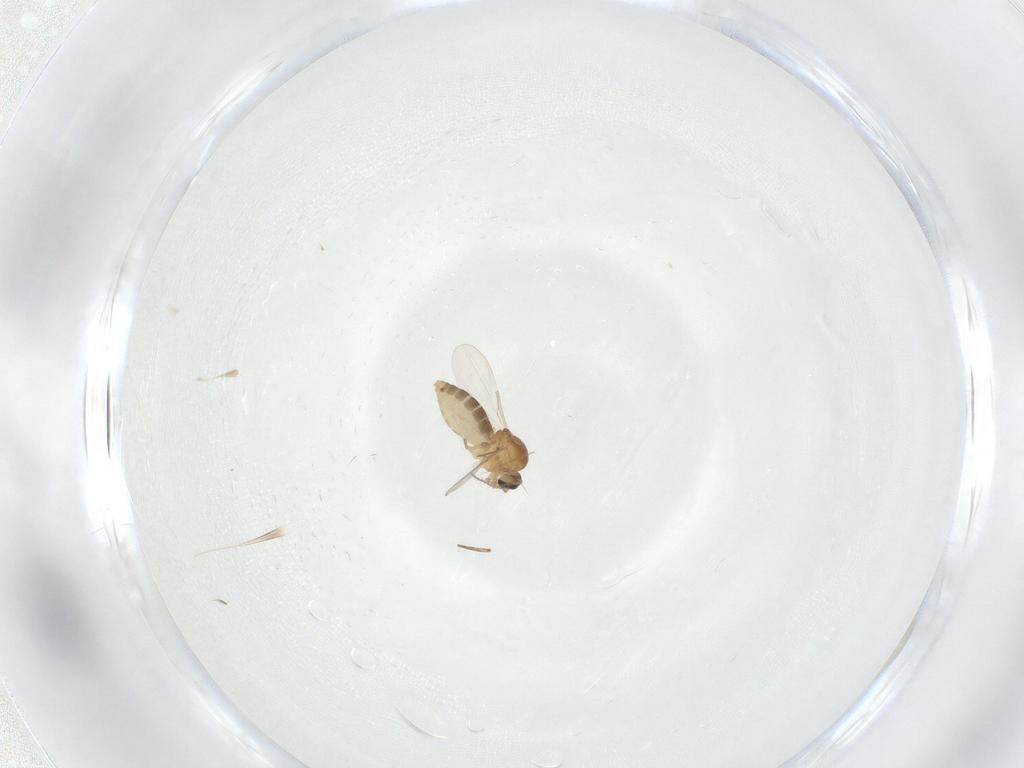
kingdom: Animalia
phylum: Arthropoda
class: Insecta
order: Diptera
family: Ceratopogonidae
